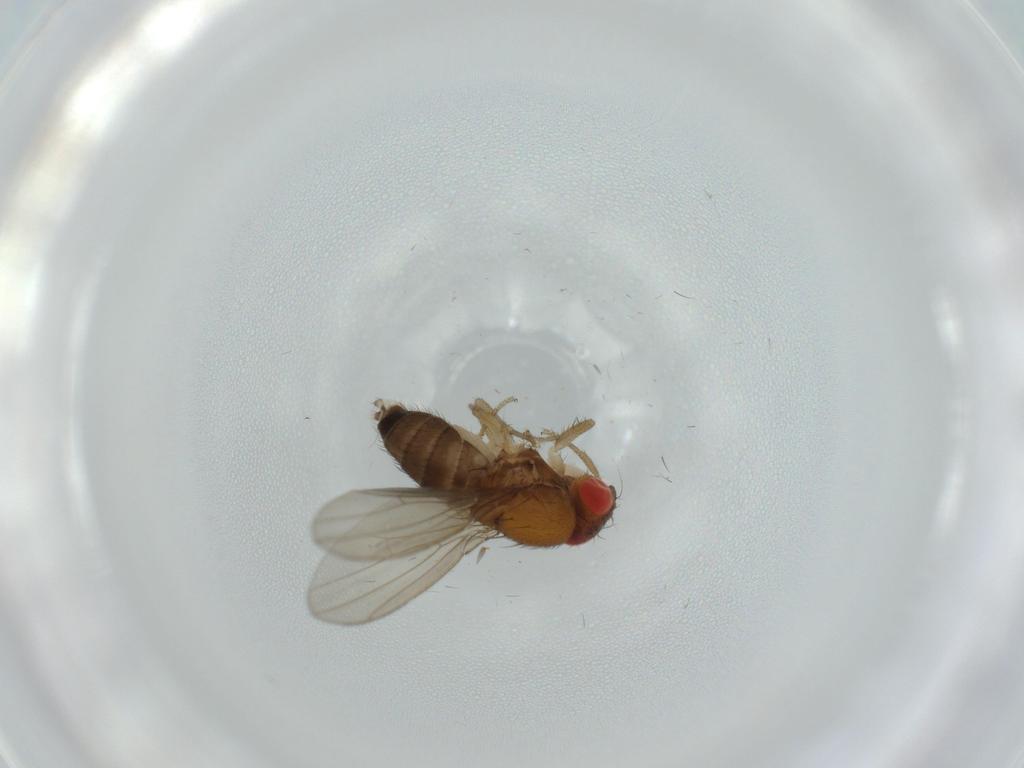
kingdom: Animalia
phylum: Arthropoda
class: Insecta
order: Diptera
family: Drosophilidae
